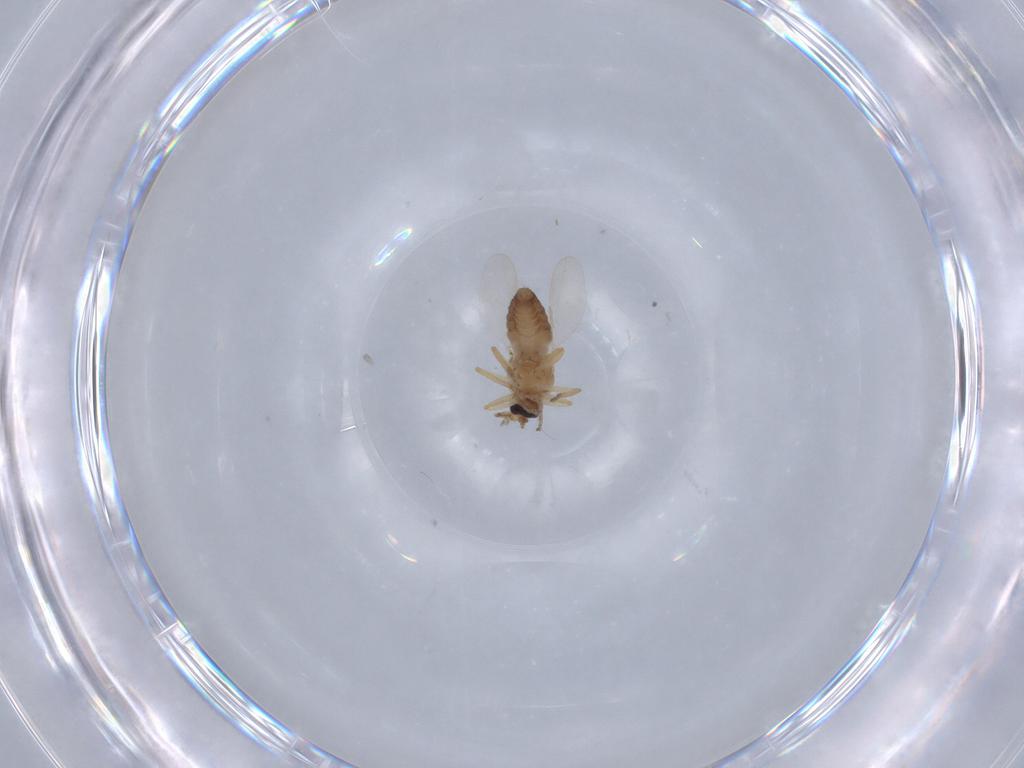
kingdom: Animalia
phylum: Arthropoda
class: Insecta
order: Diptera
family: Ceratopogonidae
